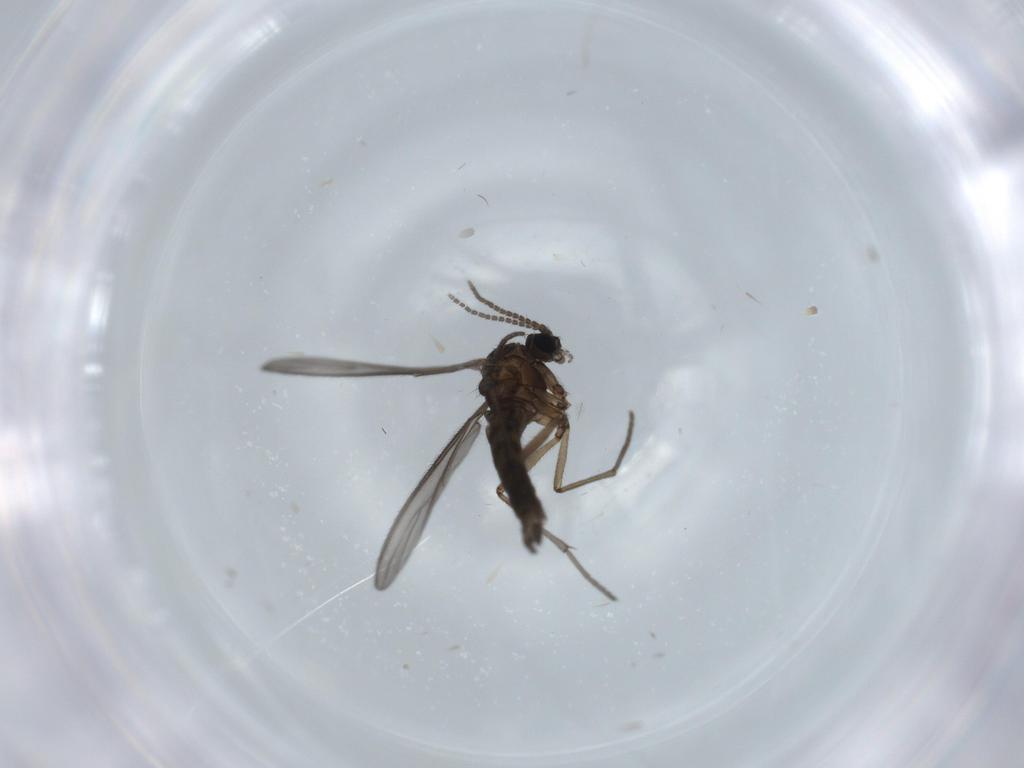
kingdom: Animalia
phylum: Arthropoda
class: Insecta
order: Diptera
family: Sciaridae
